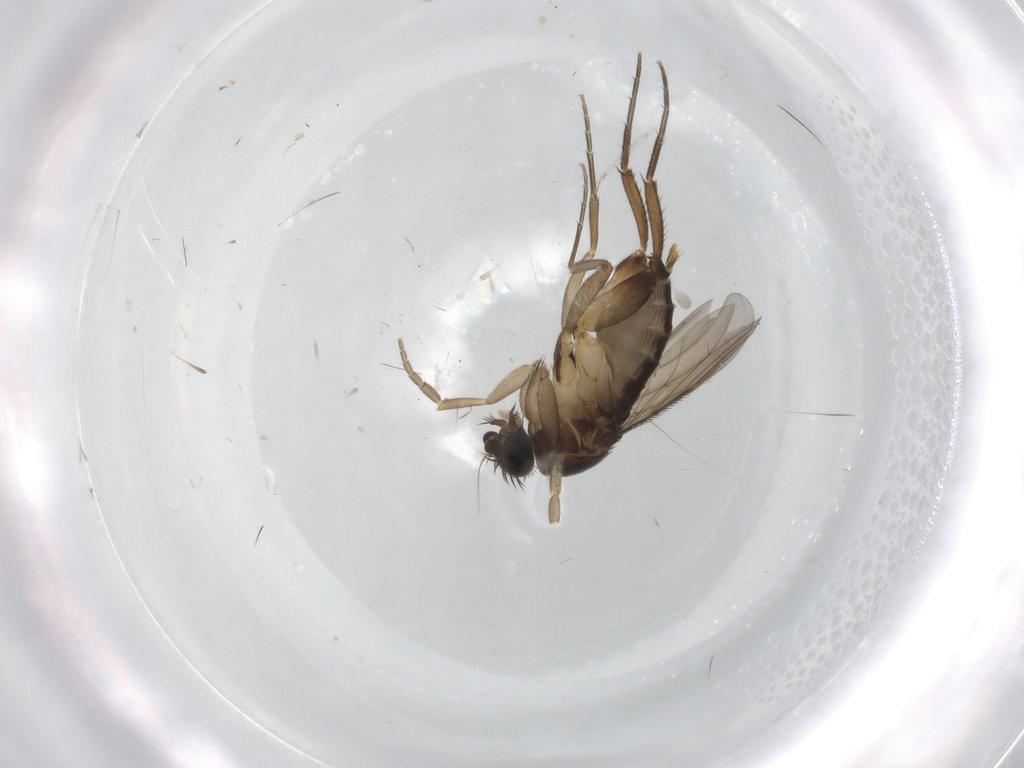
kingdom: Animalia
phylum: Arthropoda
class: Insecta
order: Diptera
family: Phoridae
